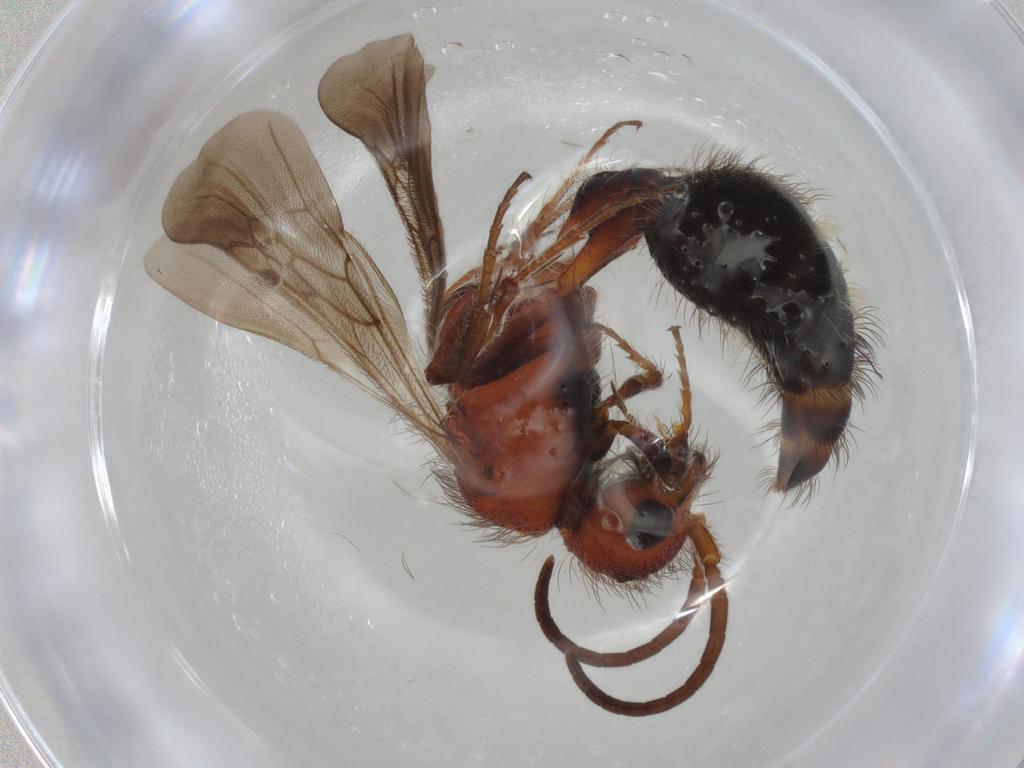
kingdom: Animalia
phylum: Arthropoda
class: Insecta
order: Hymenoptera
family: Mutillidae
